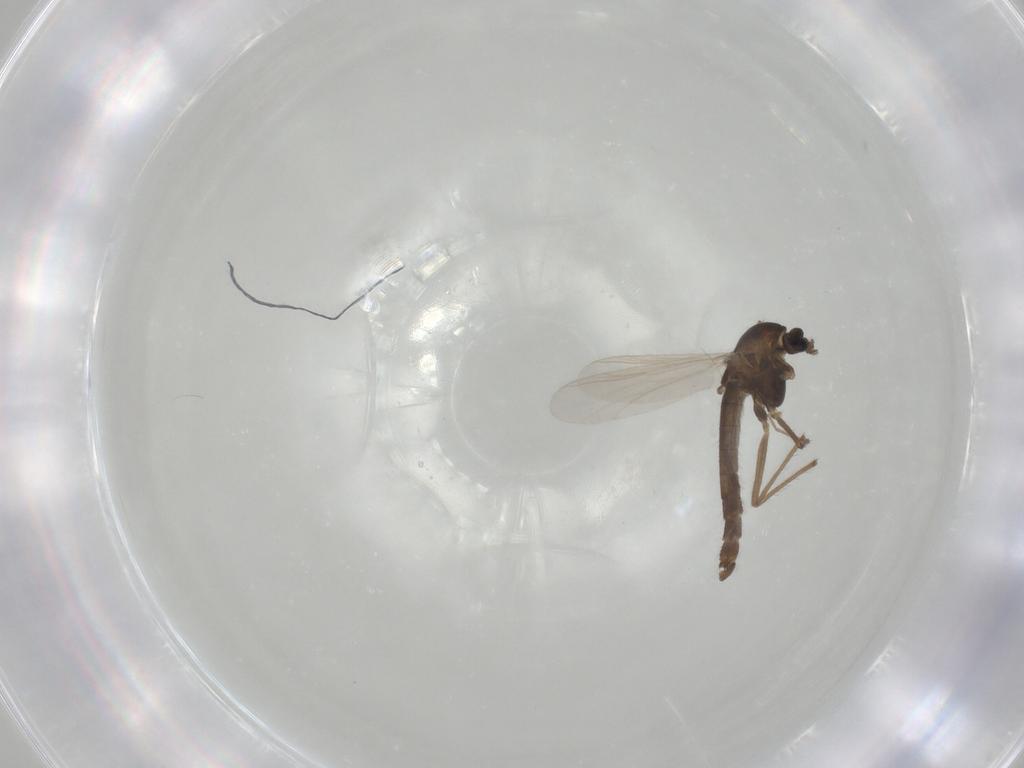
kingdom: Animalia
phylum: Arthropoda
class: Insecta
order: Diptera
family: Chironomidae
